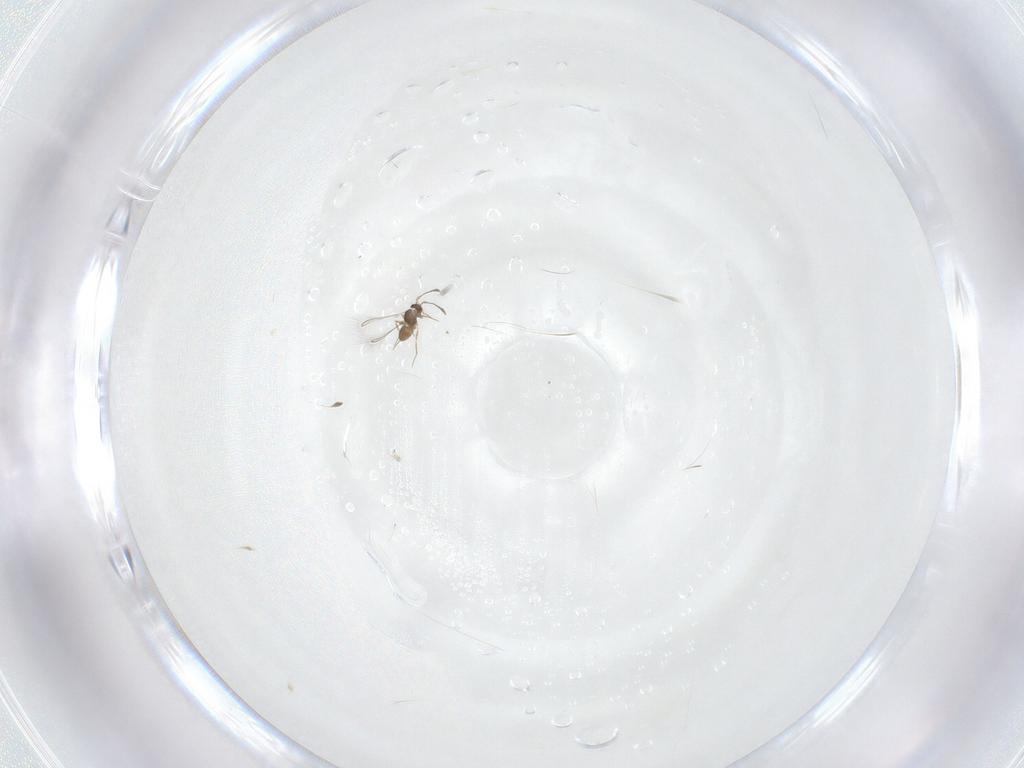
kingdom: Animalia
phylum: Arthropoda
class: Insecta
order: Hymenoptera
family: Mymaridae
